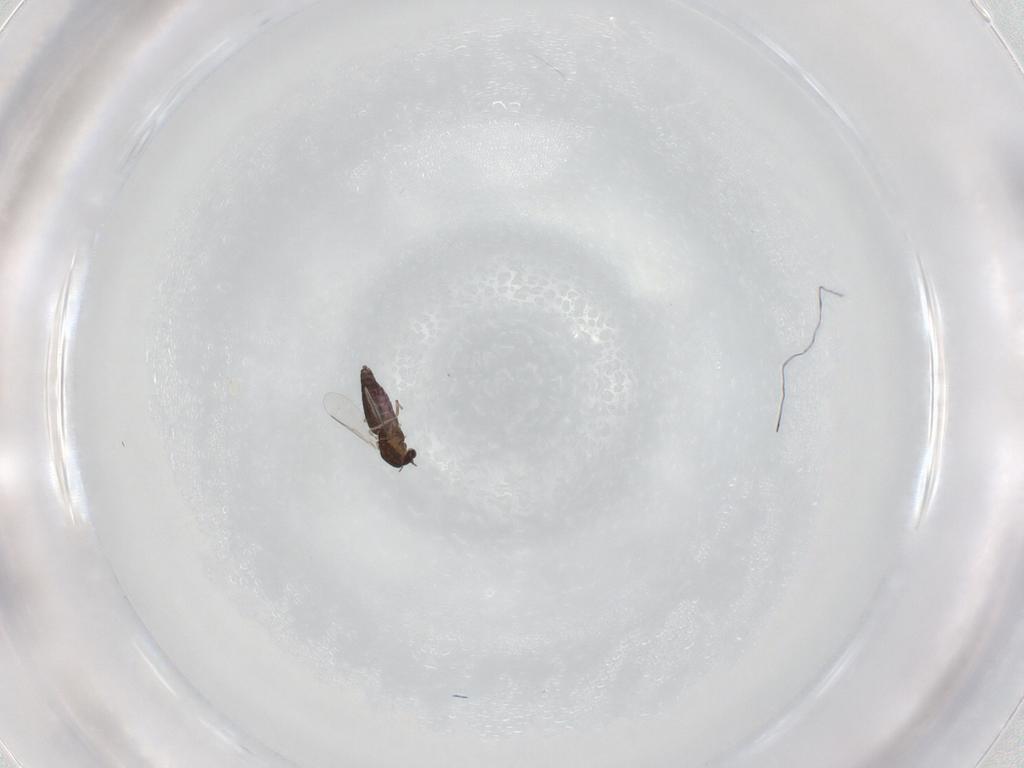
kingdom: Animalia
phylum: Arthropoda
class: Insecta
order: Diptera
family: Chironomidae
